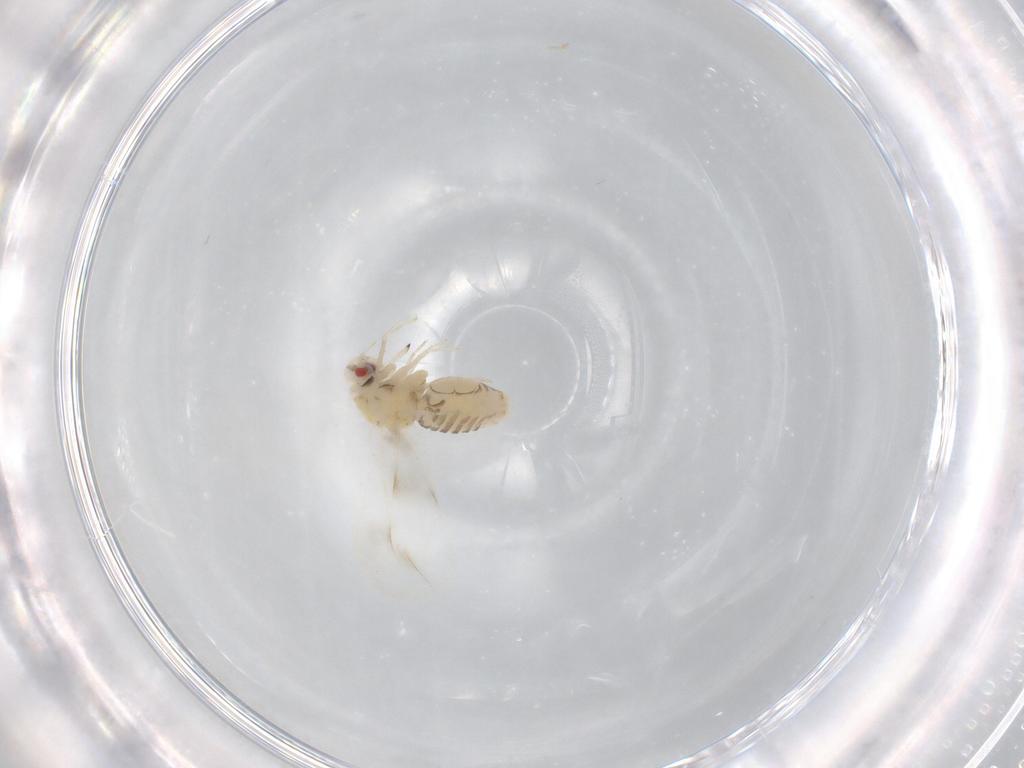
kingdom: Animalia
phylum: Arthropoda
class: Insecta
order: Hemiptera
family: Aleyrodidae
